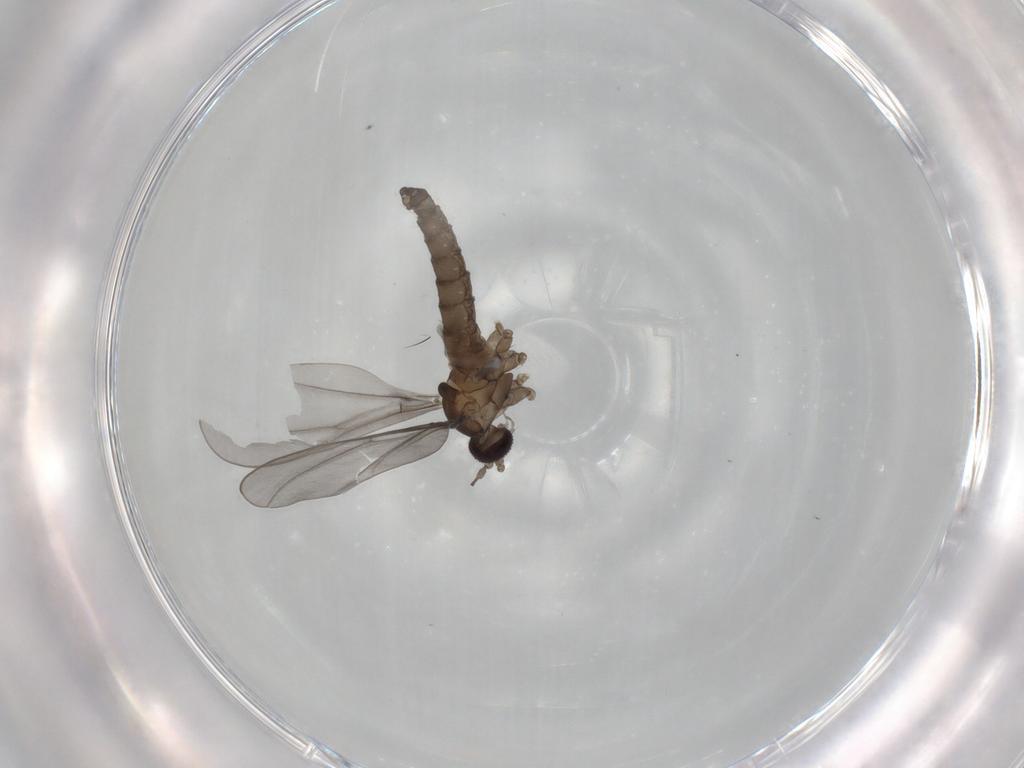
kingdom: Animalia
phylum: Arthropoda
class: Insecta
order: Diptera
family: Cecidomyiidae
